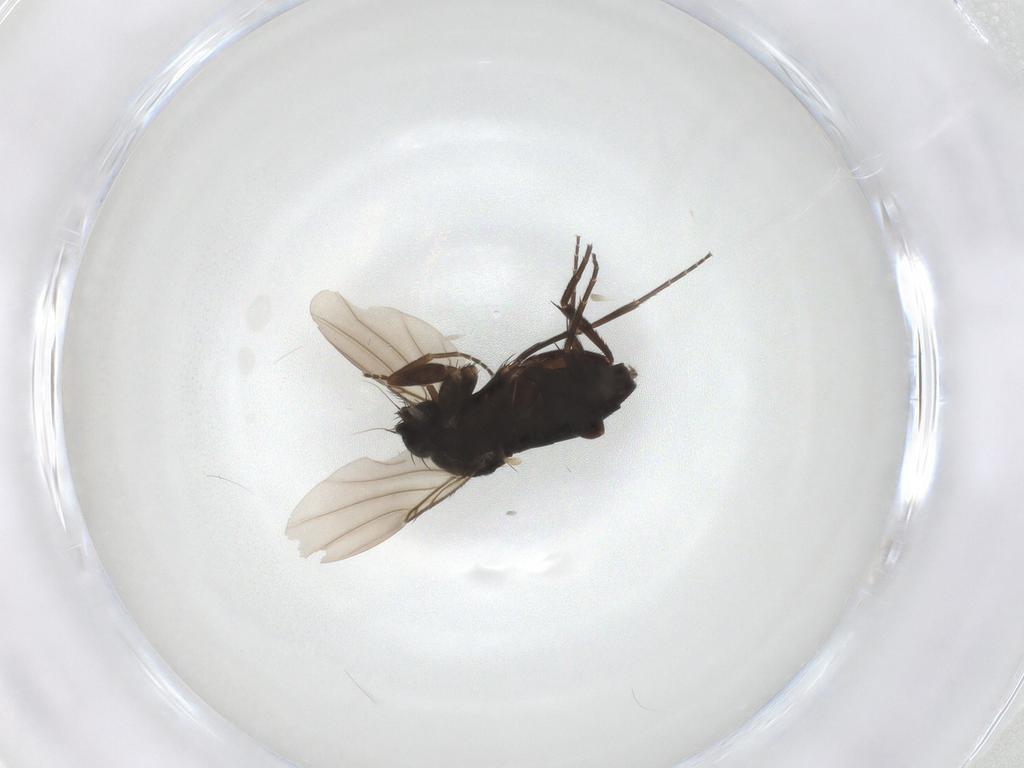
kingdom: Animalia
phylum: Arthropoda
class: Insecta
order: Diptera
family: Phoridae
